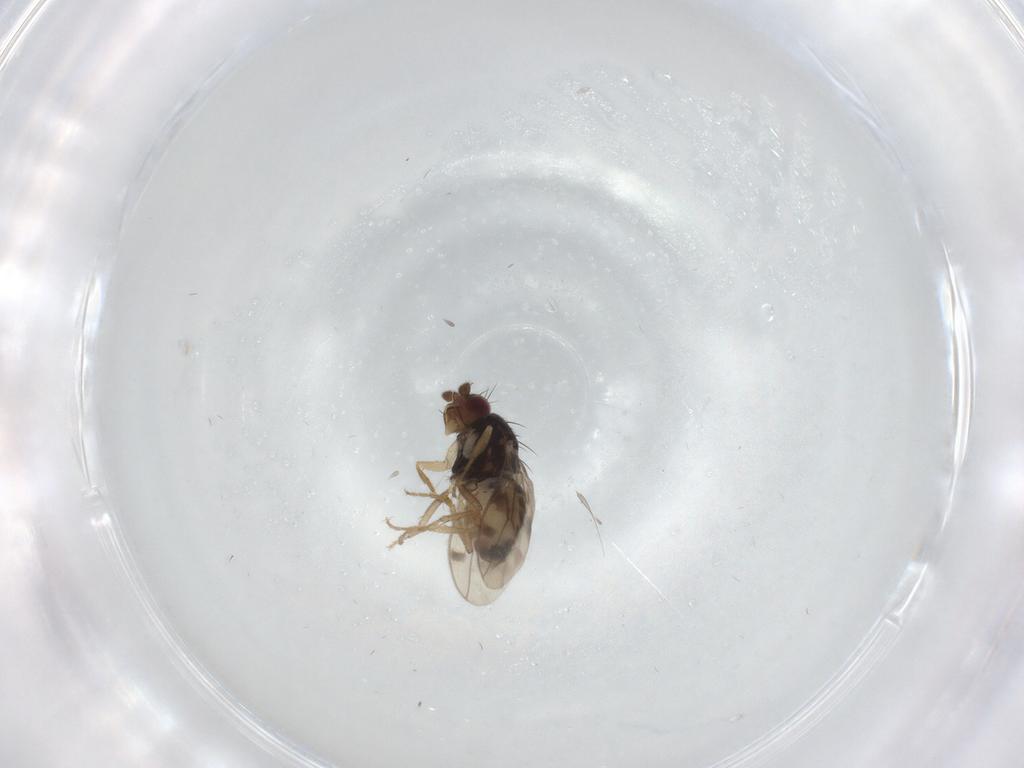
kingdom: Animalia
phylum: Arthropoda
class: Insecta
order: Diptera
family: Sphaeroceridae
